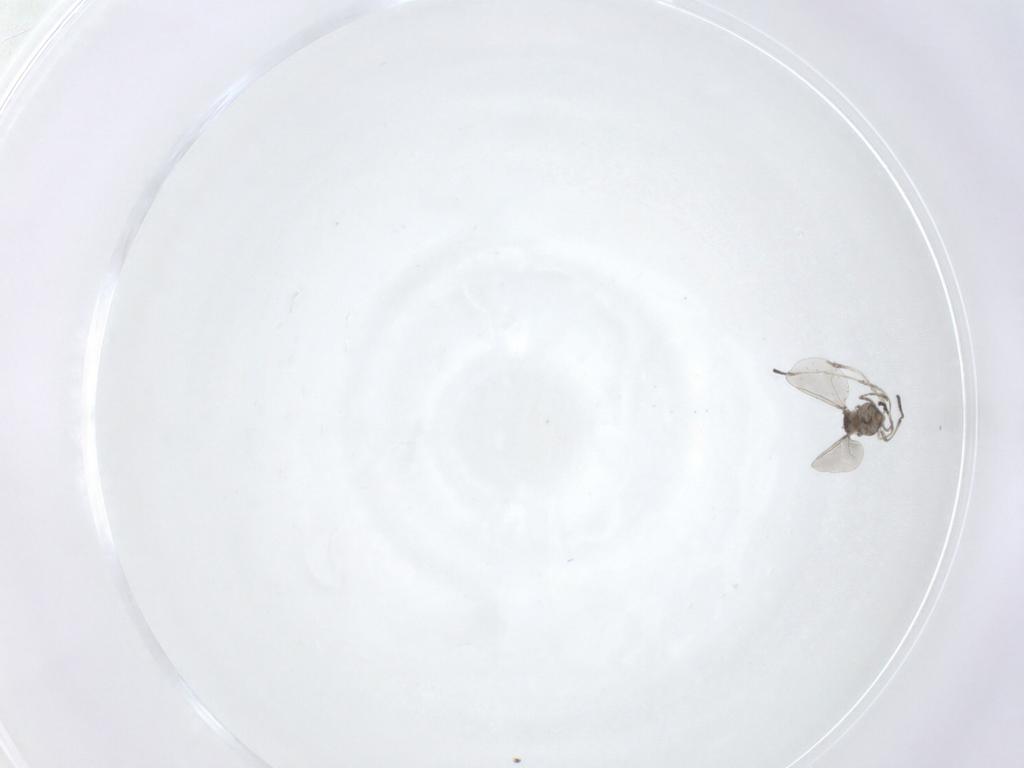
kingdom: Animalia
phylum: Arthropoda
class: Insecta
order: Diptera
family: Cecidomyiidae
